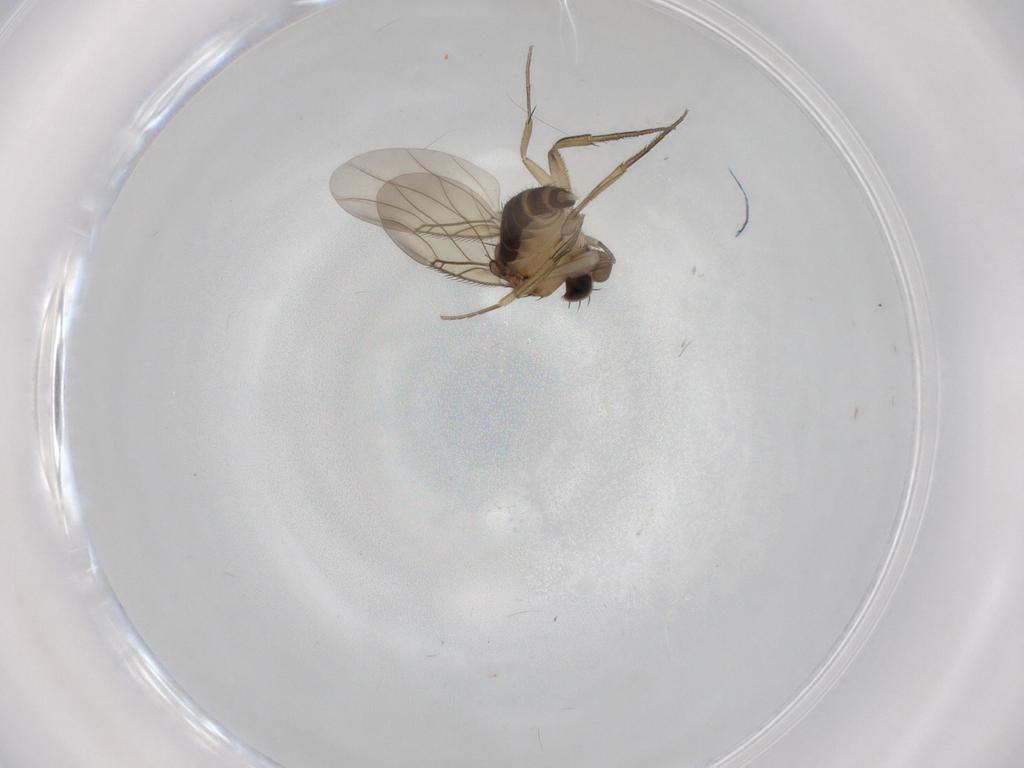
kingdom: Animalia
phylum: Arthropoda
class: Insecta
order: Diptera
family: Phoridae
